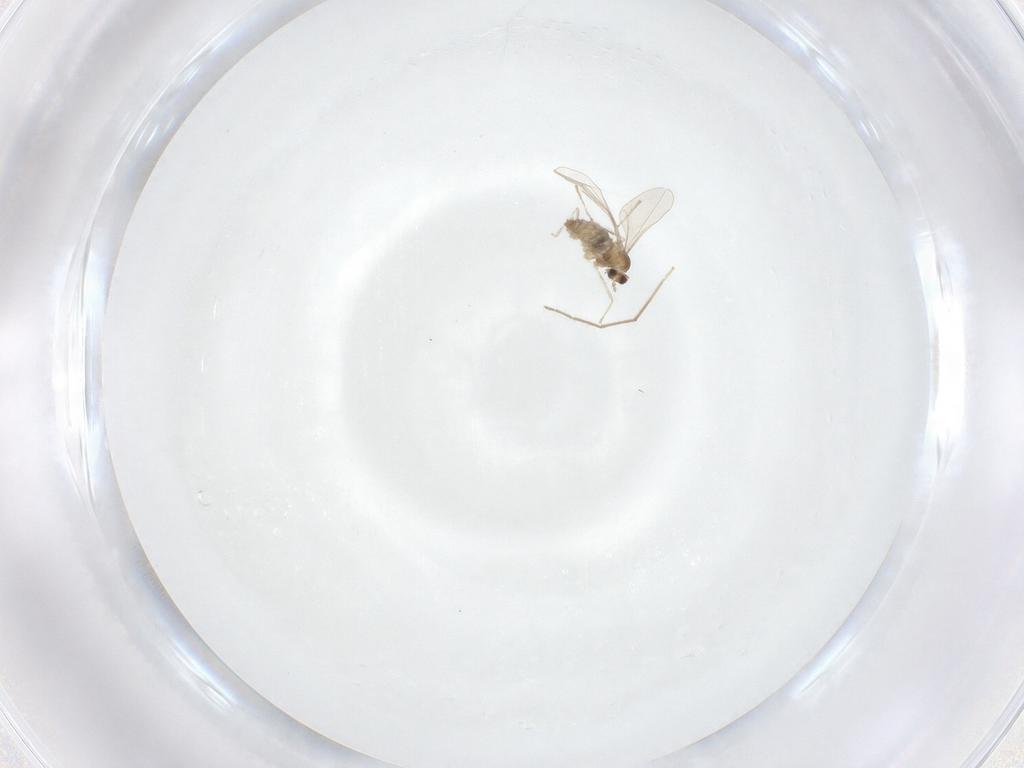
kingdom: Animalia
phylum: Arthropoda
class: Insecta
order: Diptera
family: Cecidomyiidae
